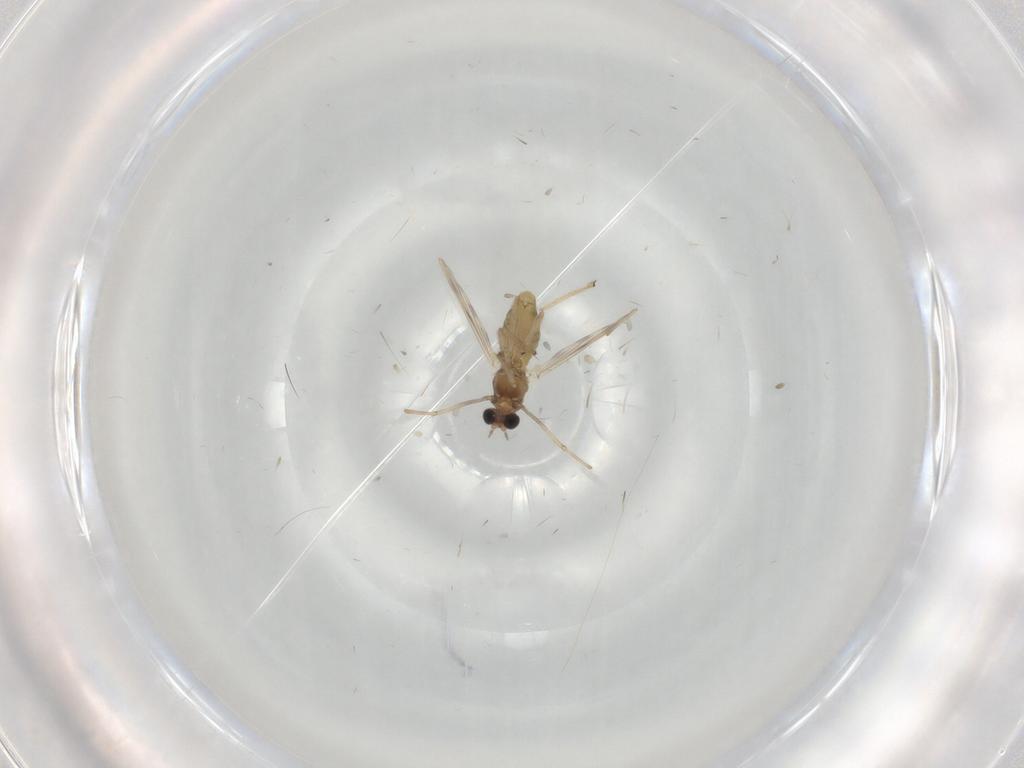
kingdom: Animalia
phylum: Arthropoda
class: Insecta
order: Diptera
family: Chironomidae
